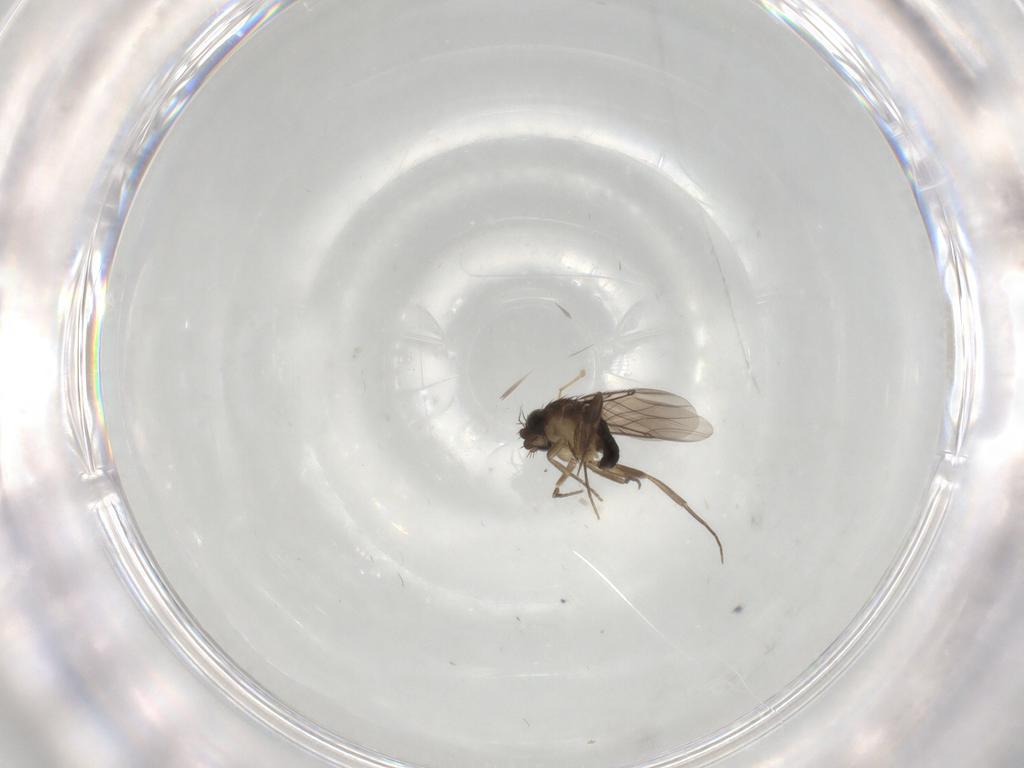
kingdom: Animalia
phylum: Arthropoda
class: Insecta
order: Diptera
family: Phoridae
